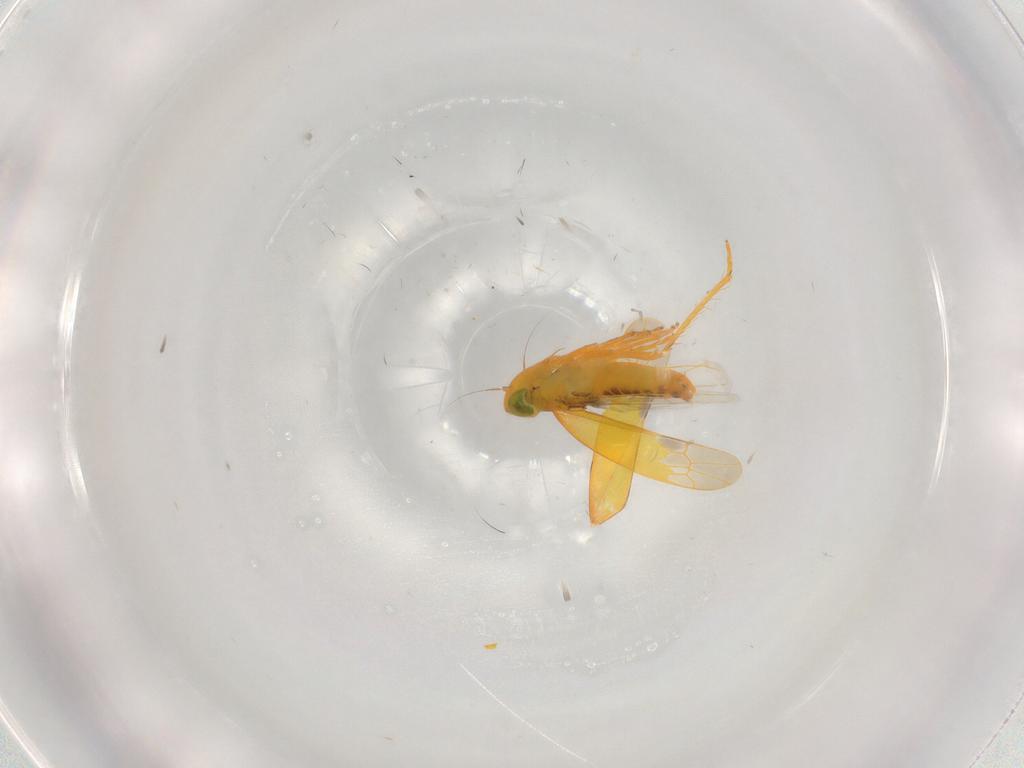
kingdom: Animalia
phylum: Arthropoda
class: Insecta
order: Hemiptera
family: Cicadellidae
